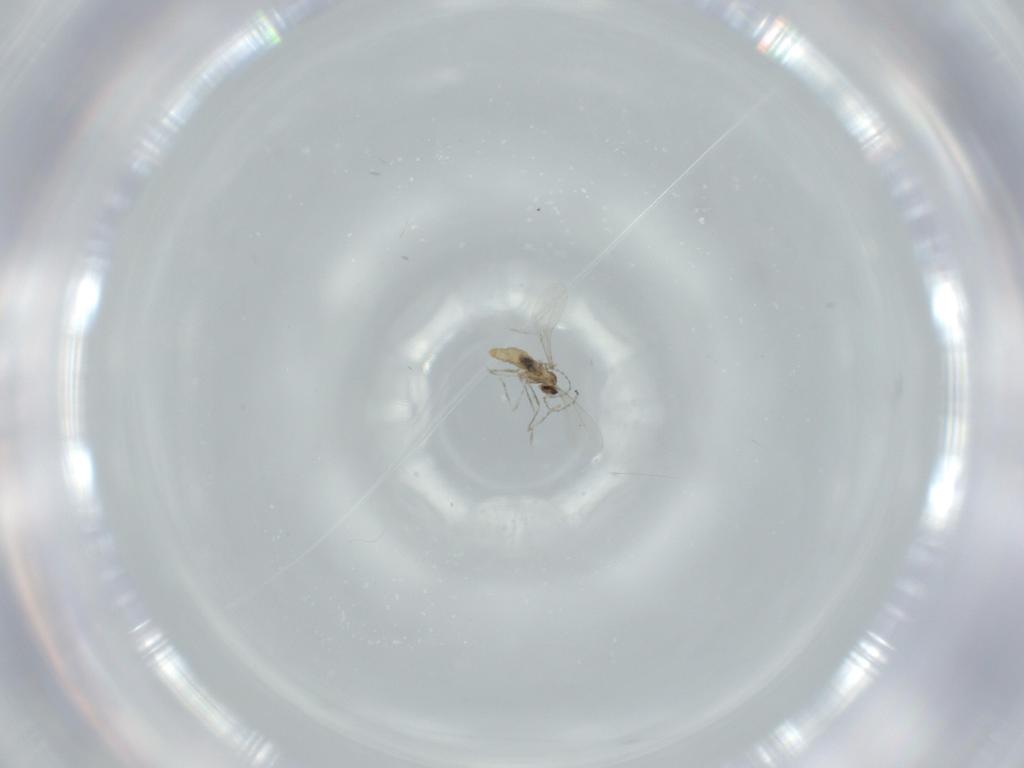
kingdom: Animalia
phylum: Arthropoda
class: Insecta
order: Diptera
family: Cecidomyiidae
